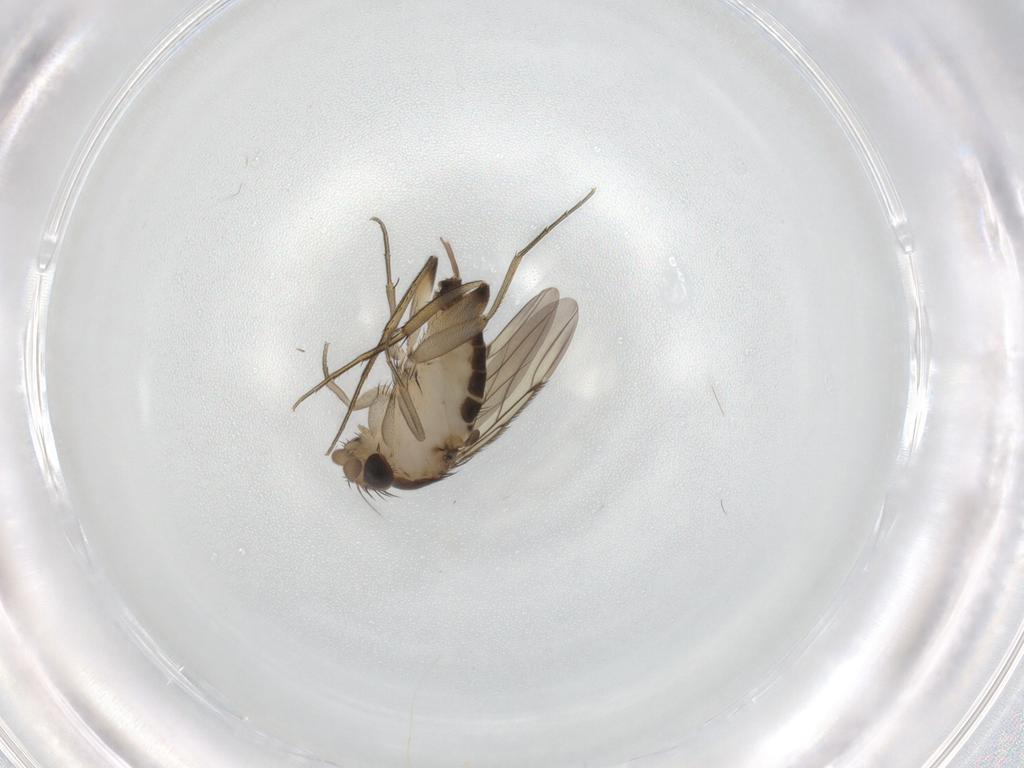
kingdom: Animalia
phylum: Arthropoda
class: Insecta
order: Diptera
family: Phoridae
